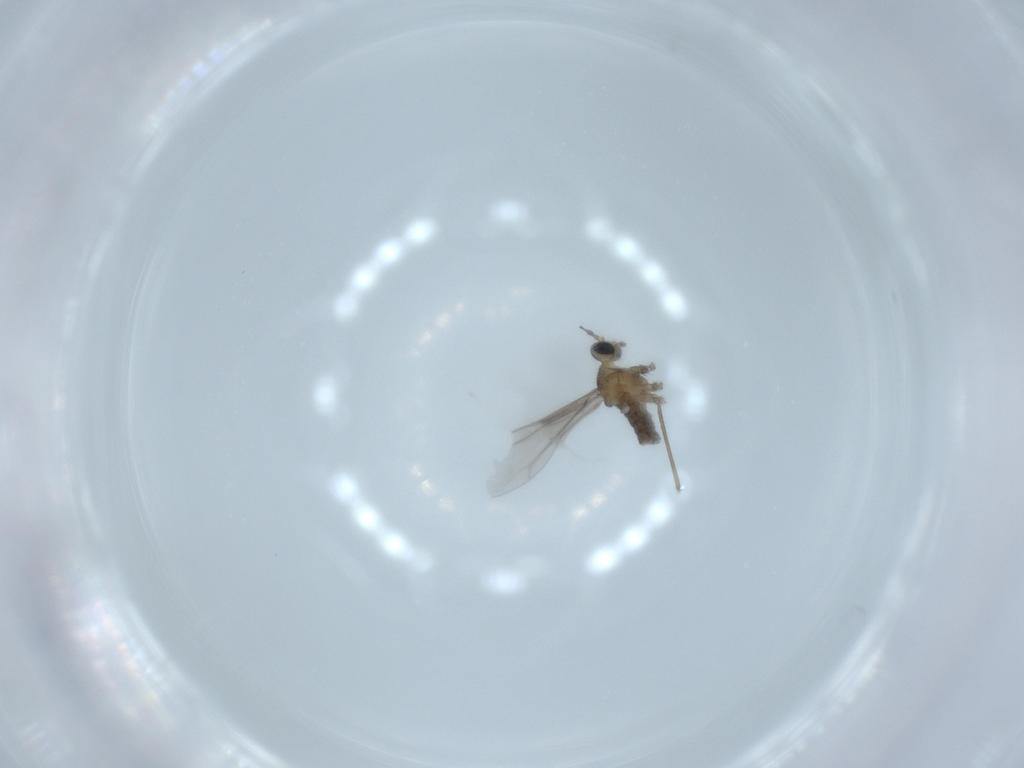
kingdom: Animalia
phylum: Arthropoda
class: Insecta
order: Diptera
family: Cecidomyiidae
